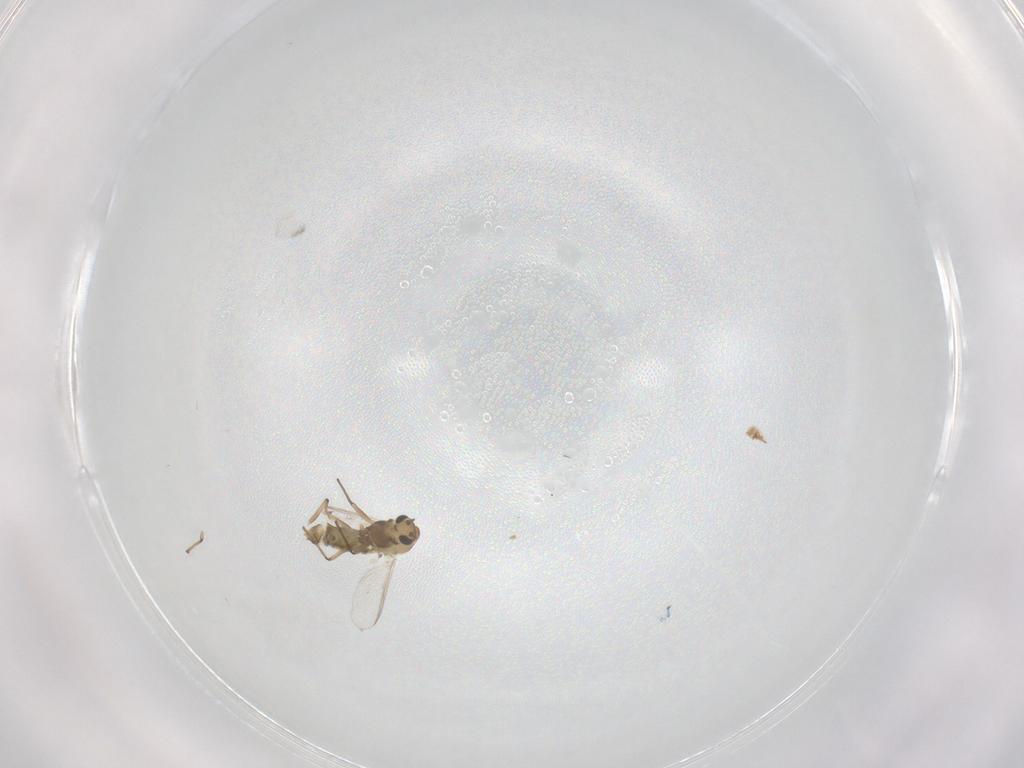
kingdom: Animalia
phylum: Arthropoda
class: Insecta
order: Diptera
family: Chironomidae
